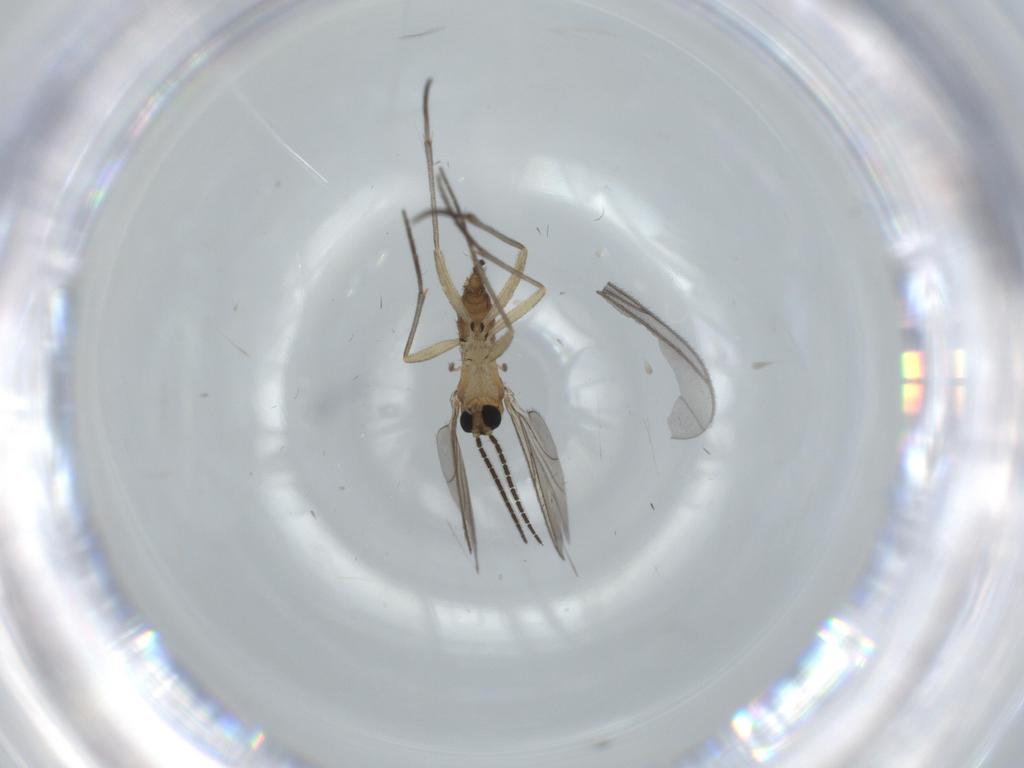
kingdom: Animalia
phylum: Arthropoda
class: Insecta
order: Diptera
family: Sciaridae
